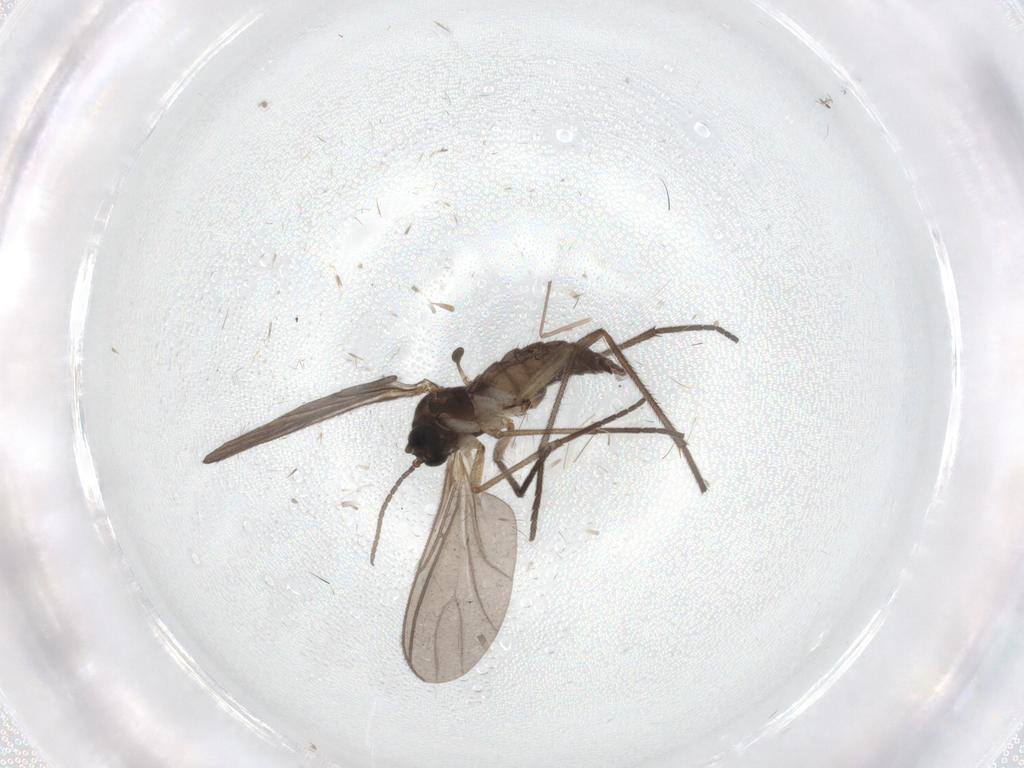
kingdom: Animalia
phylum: Arthropoda
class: Insecta
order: Diptera
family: Sciaridae
